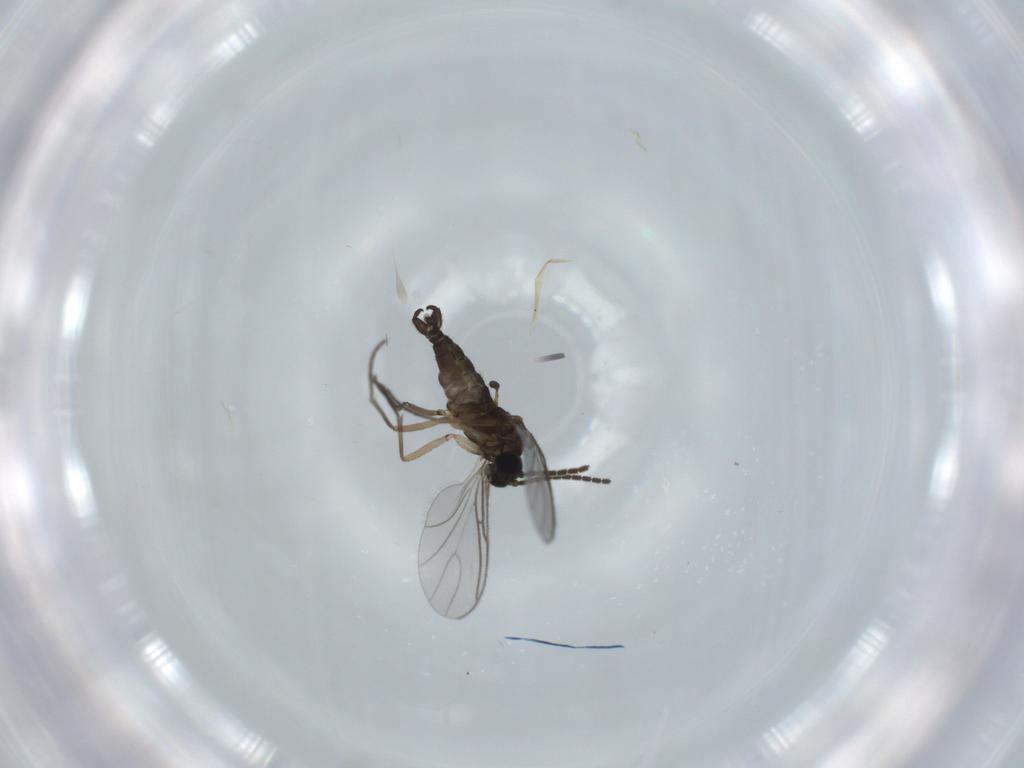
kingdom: Animalia
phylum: Arthropoda
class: Insecta
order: Diptera
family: Sciaridae
